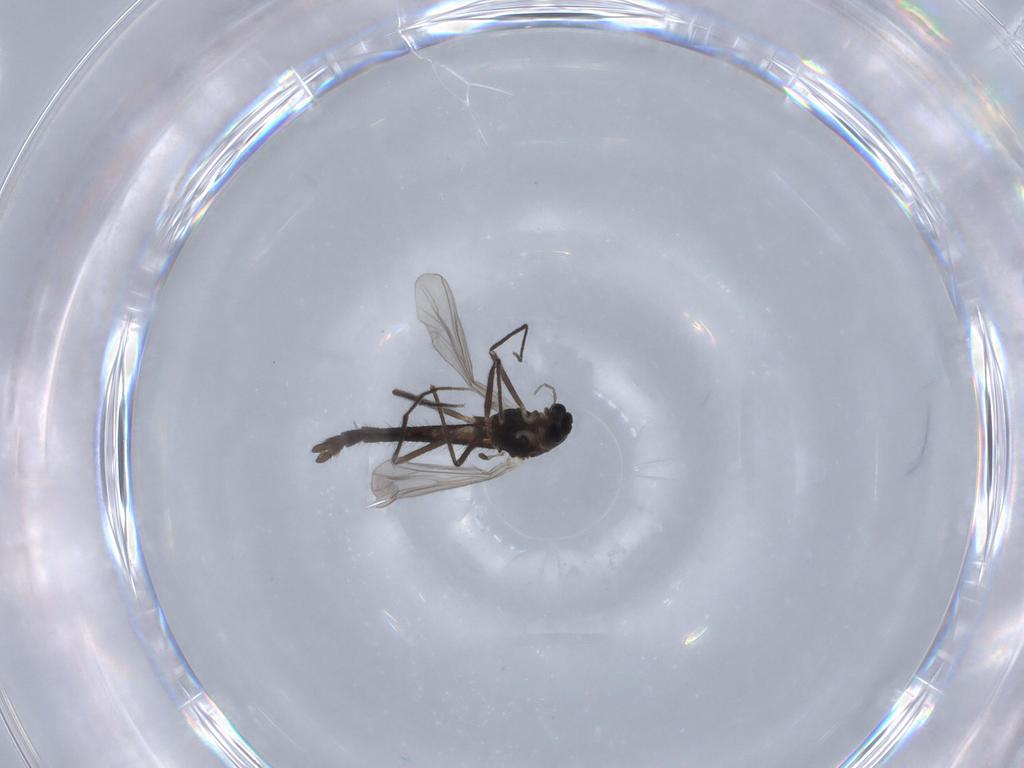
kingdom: Animalia
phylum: Arthropoda
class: Insecta
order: Diptera
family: Chironomidae
